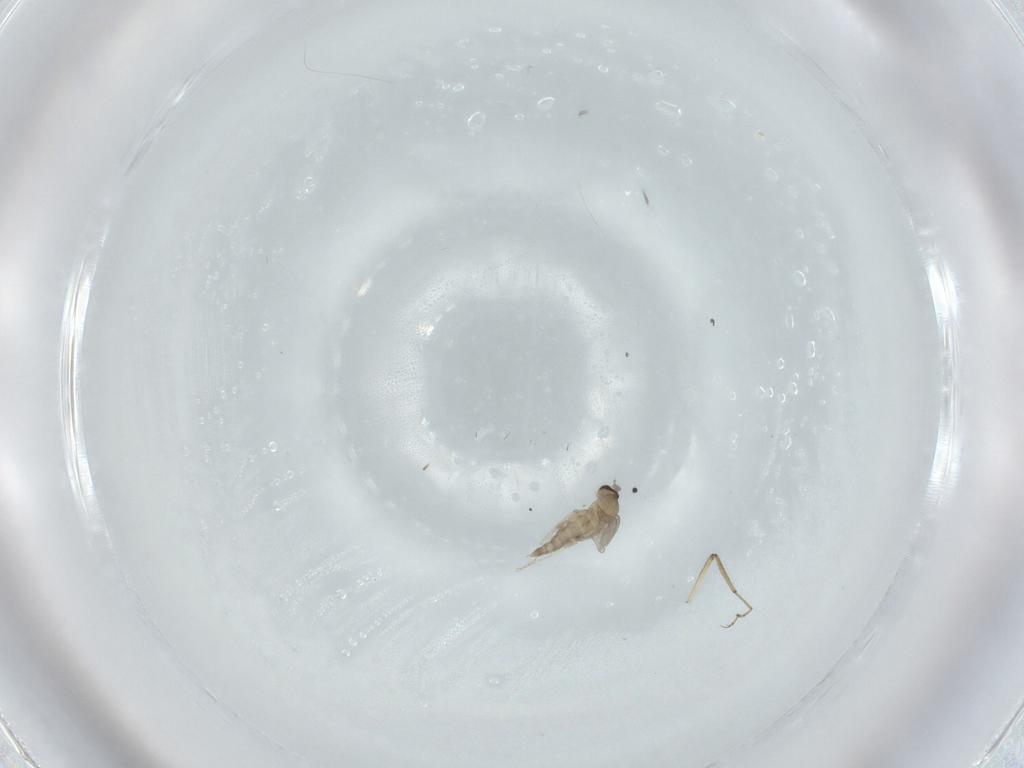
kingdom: Animalia
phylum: Arthropoda
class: Insecta
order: Diptera
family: Cecidomyiidae
